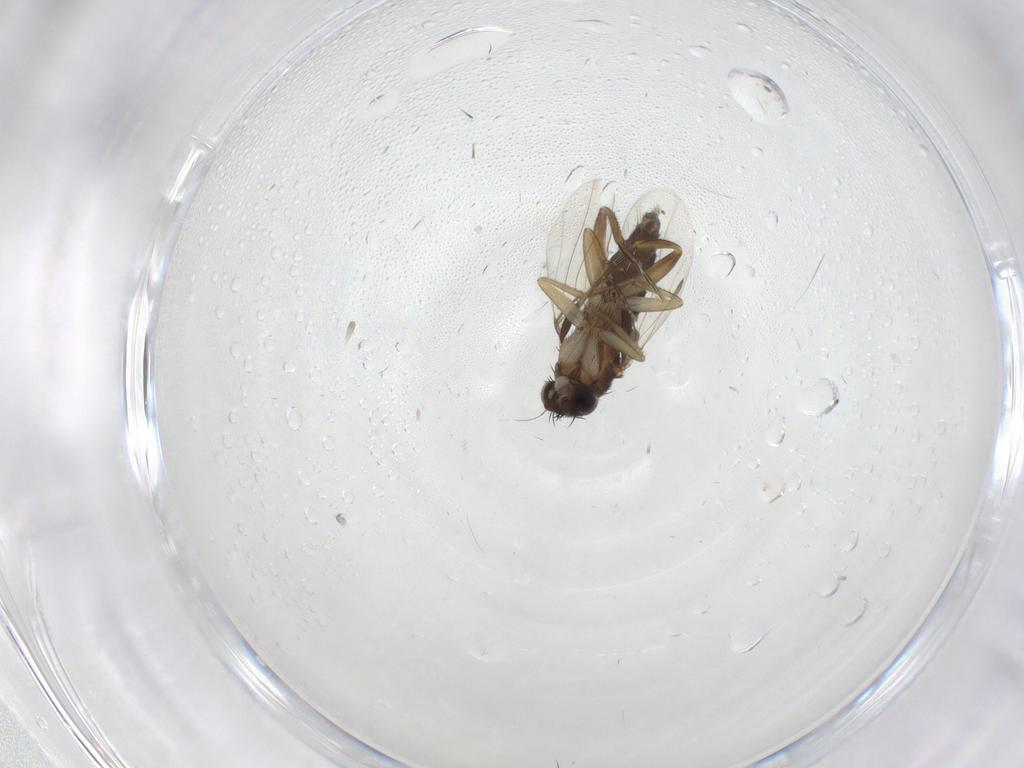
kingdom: Animalia
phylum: Arthropoda
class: Insecta
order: Diptera
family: Phoridae
